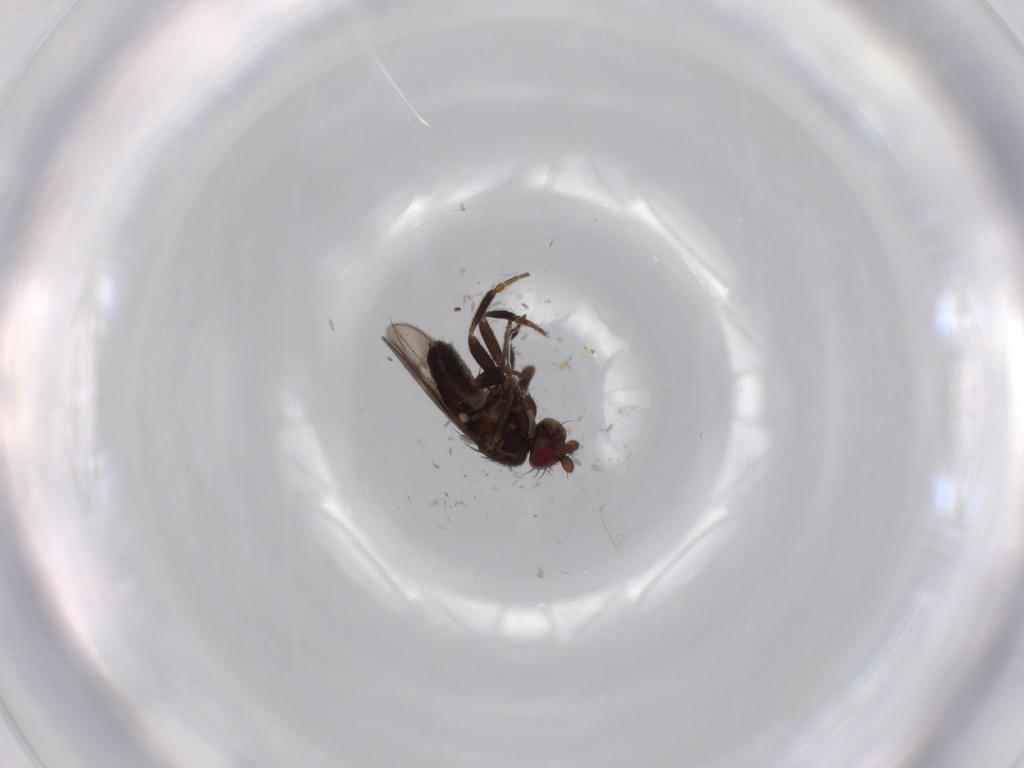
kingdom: Animalia
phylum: Arthropoda
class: Insecta
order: Diptera
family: Sphaeroceridae
